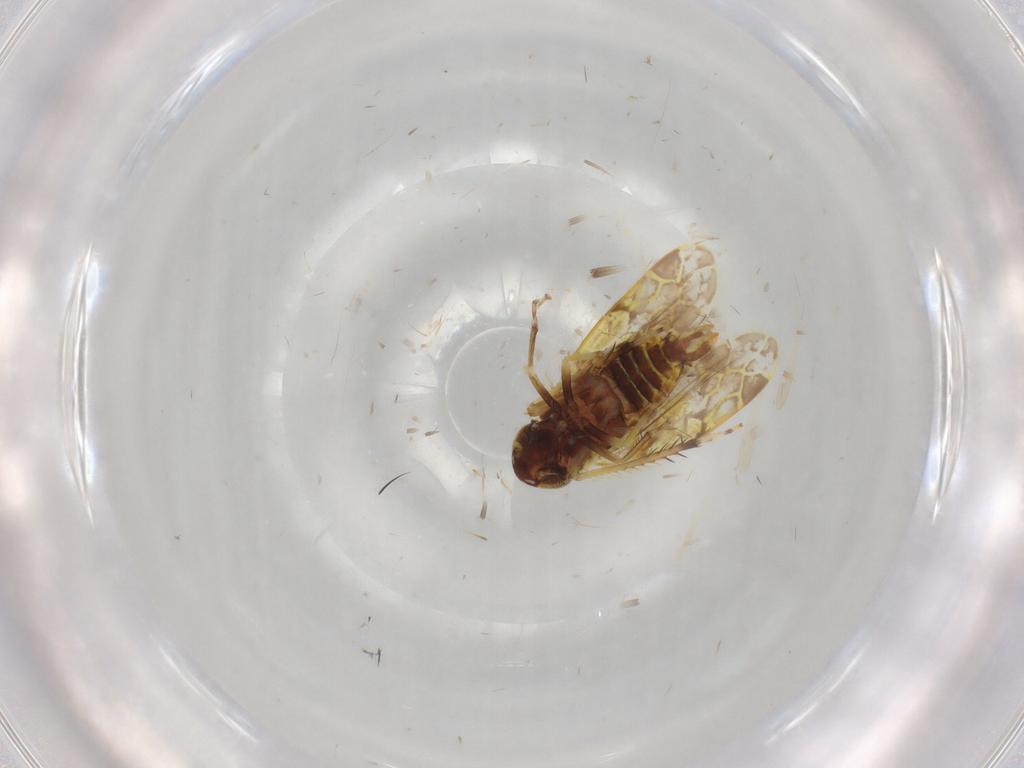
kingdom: Animalia
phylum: Arthropoda
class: Insecta
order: Hemiptera
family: Cicadellidae
